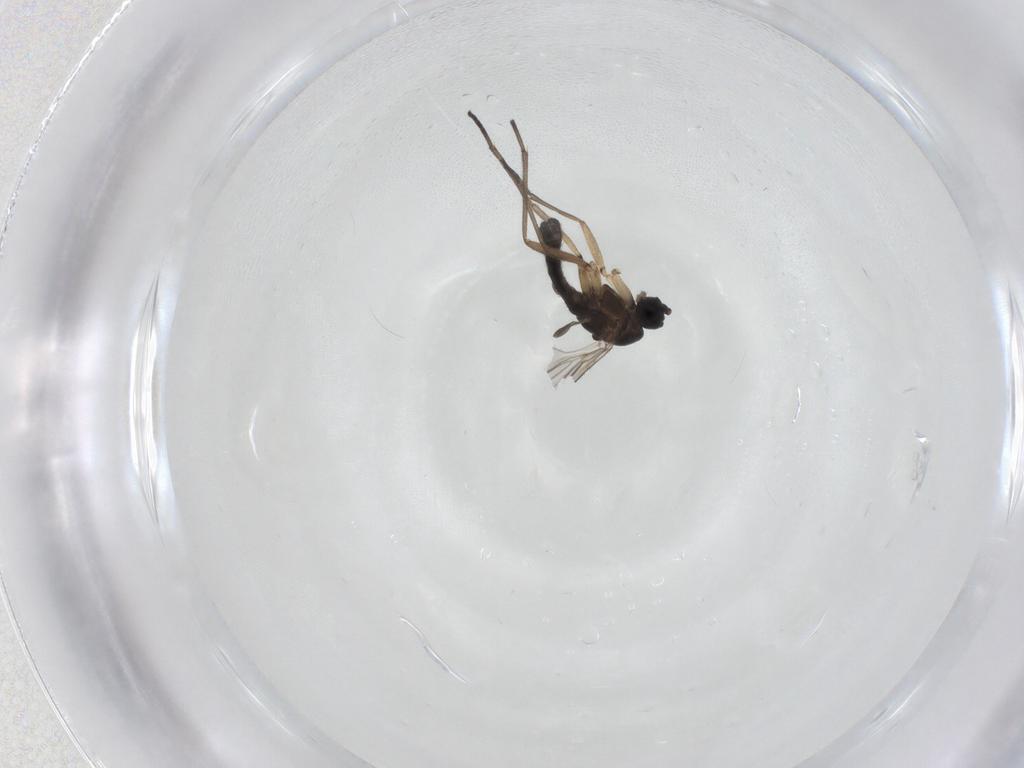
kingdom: Animalia
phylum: Arthropoda
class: Insecta
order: Diptera
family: Sciaridae
